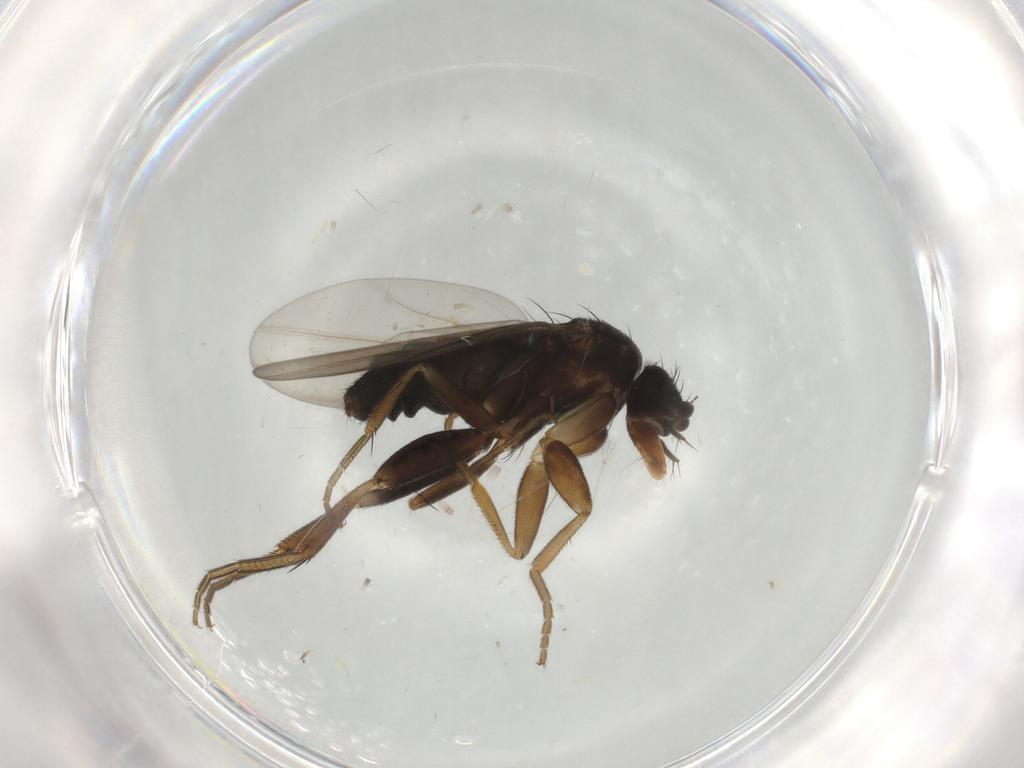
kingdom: Animalia
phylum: Arthropoda
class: Insecta
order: Diptera
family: Phoridae
